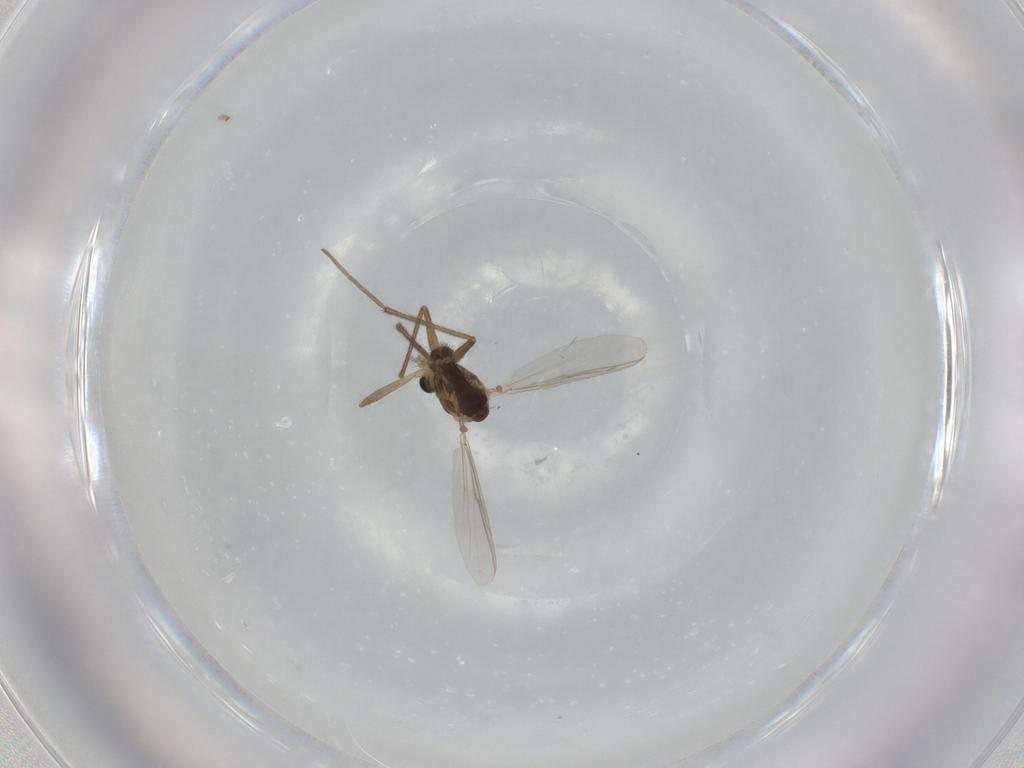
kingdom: Animalia
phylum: Arthropoda
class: Insecta
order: Diptera
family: Chironomidae
